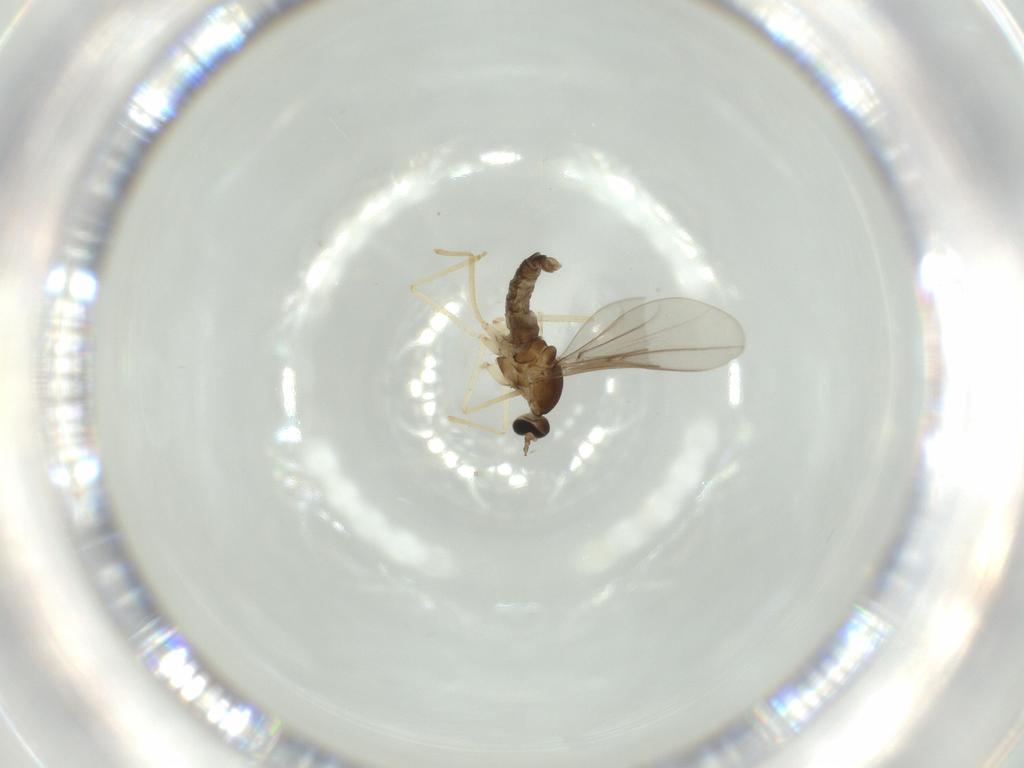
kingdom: Animalia
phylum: Arthropoda
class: Insecta
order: Diptera
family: Cecidomyiidae
